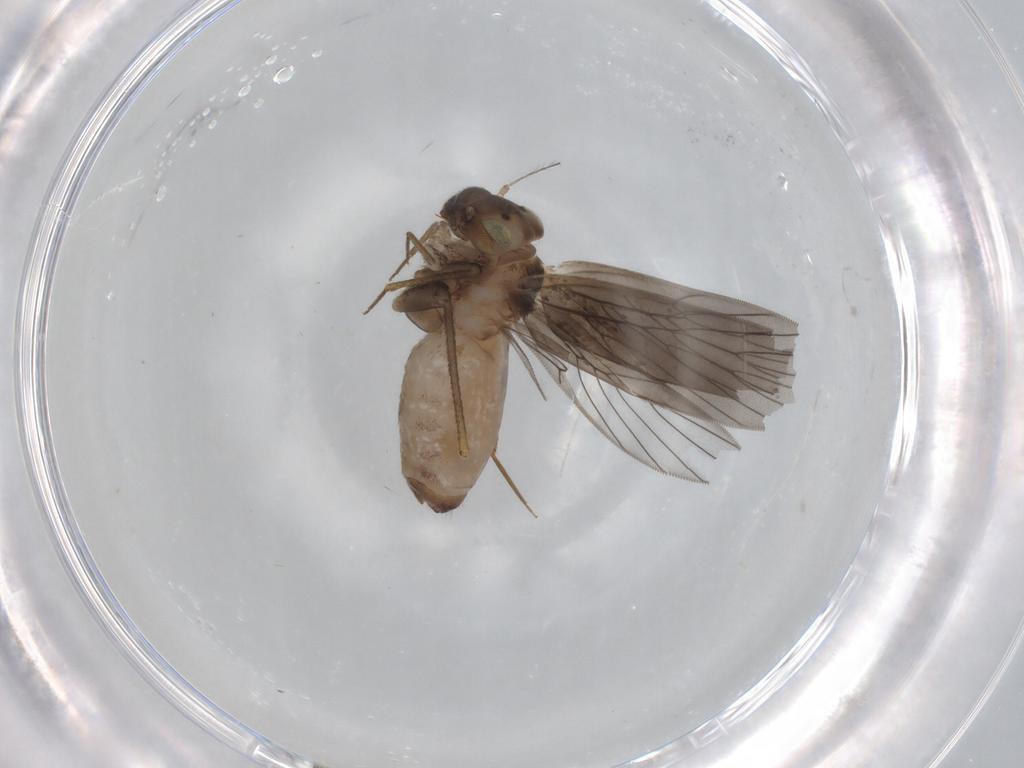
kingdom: Animalia
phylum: Arthropoda
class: Insecta
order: Psocodea
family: Lepidopsocidae
